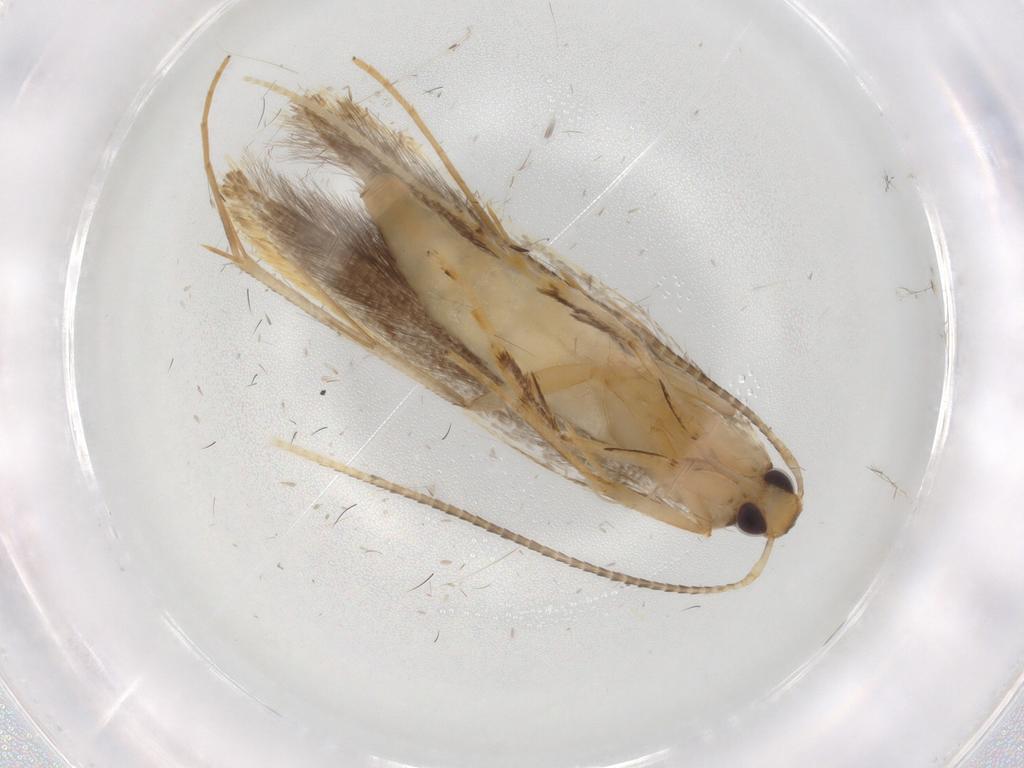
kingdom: Animalia
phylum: Arthropoda
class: Insecta
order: Lepidoptera
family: Pterolonchidae
